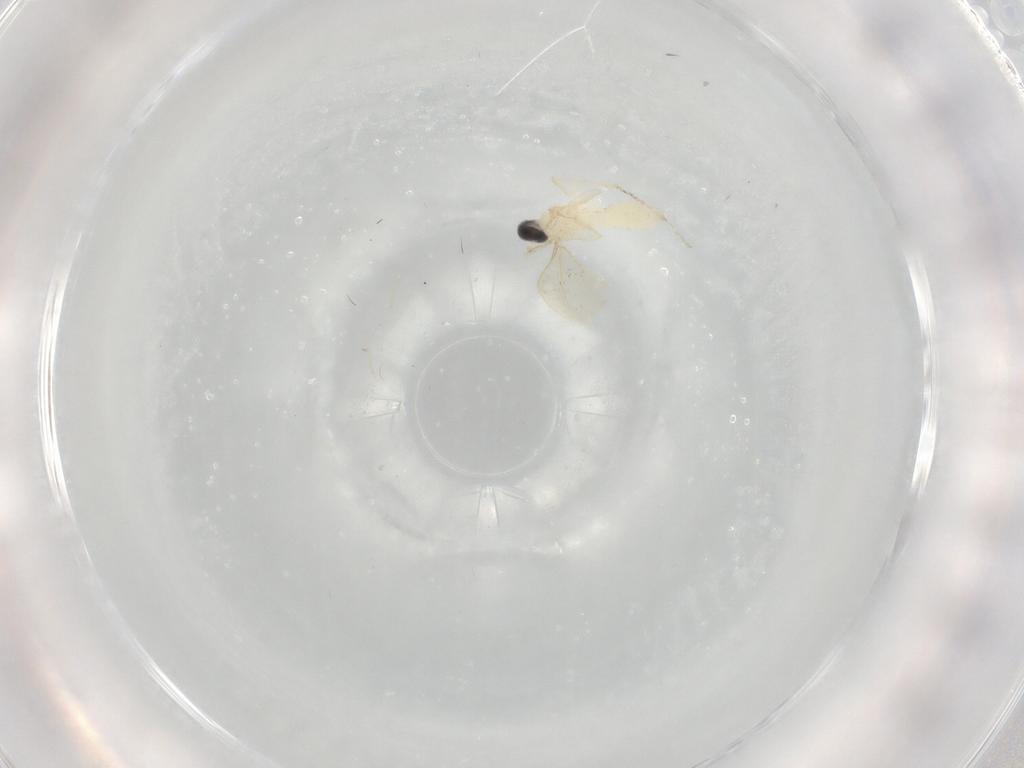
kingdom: Animalia
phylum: Arthropoda
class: Insecta
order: Diptera
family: Cecidomyiidae
